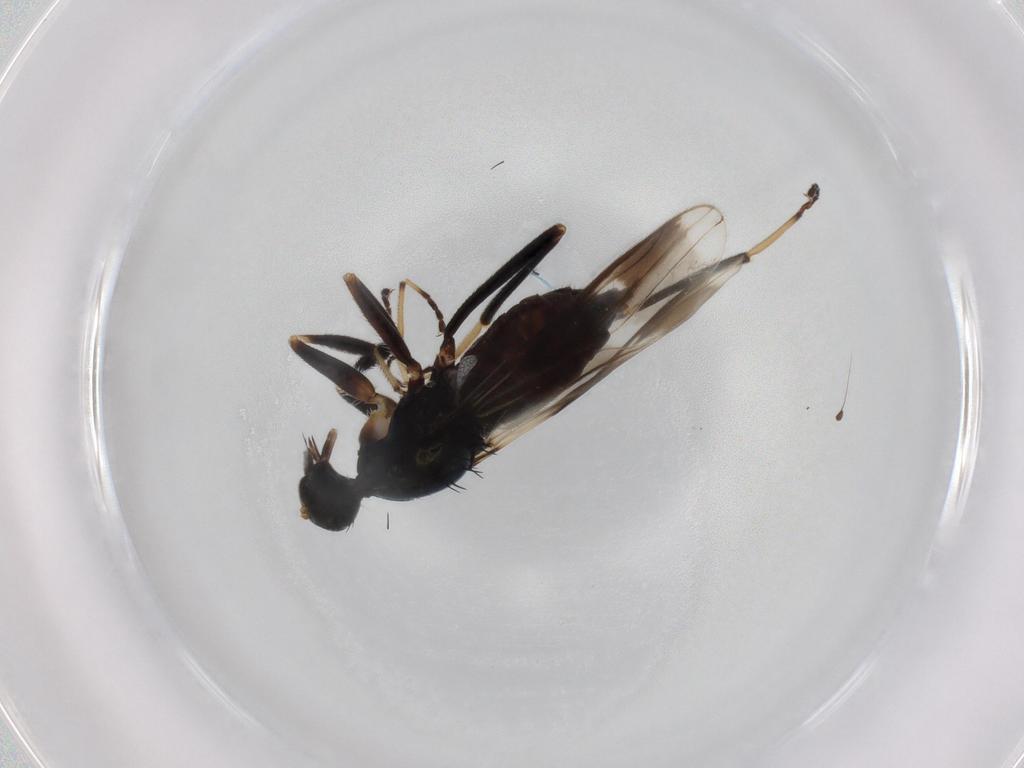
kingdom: Animalia
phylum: Arthropoda
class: Insecta
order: Diptera
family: Hybotidae
